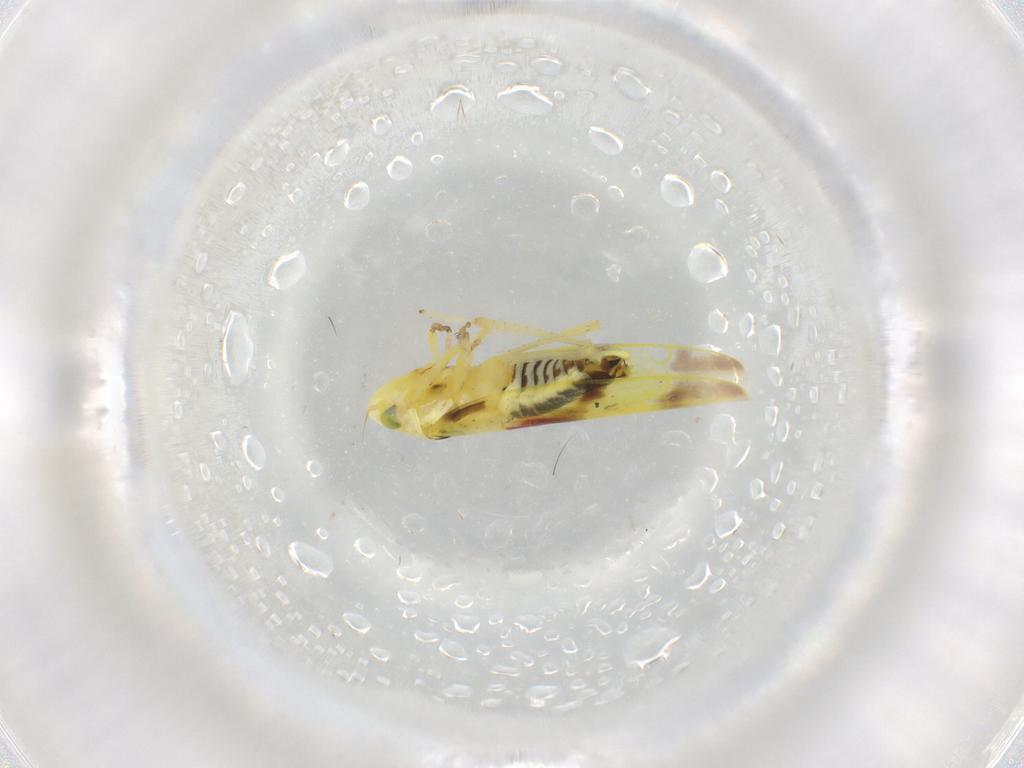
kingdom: Animalia
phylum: Arthropoda
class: Insecta
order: Hemiptera
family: Cicadellidae
